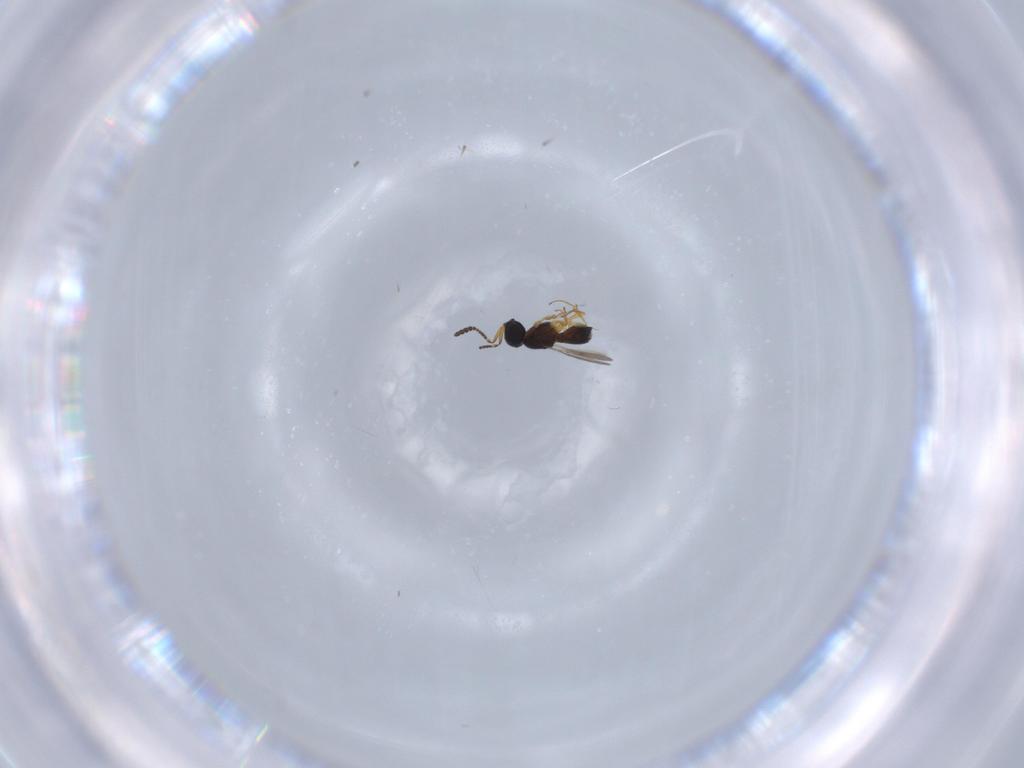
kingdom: Animalia
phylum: Arthropoda
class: Insecta
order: Hymenoptera
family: Scelionidae
